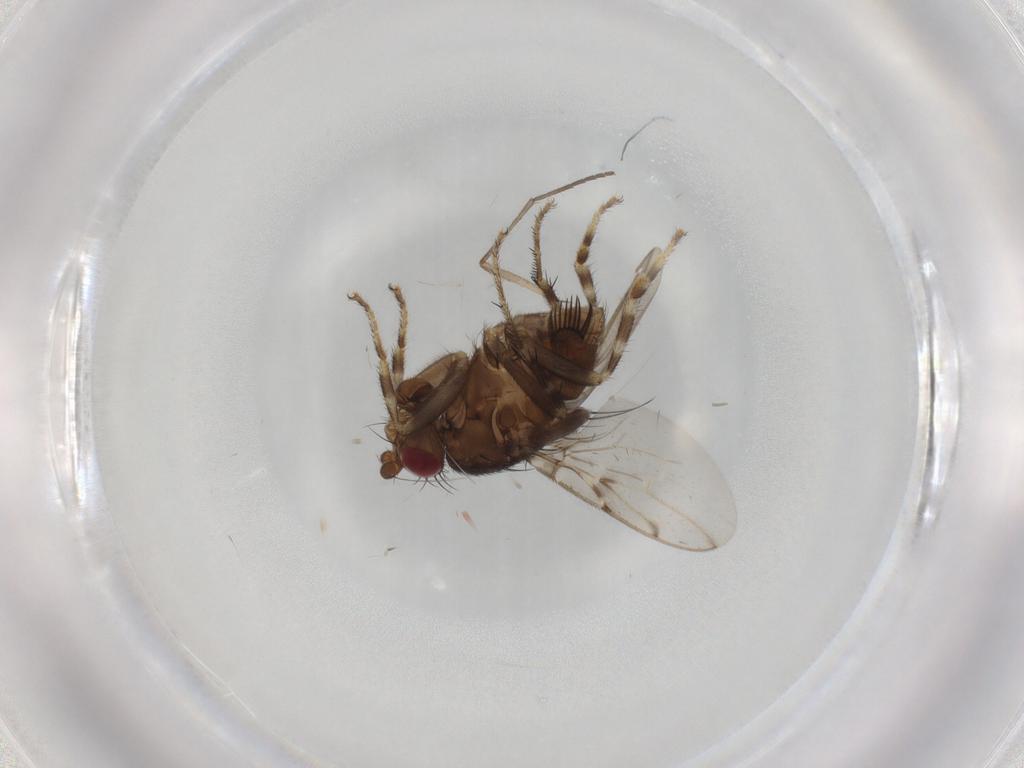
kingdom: Animalia
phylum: Arthropoda
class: Insecta
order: Diptera
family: Sphaeroceridae
